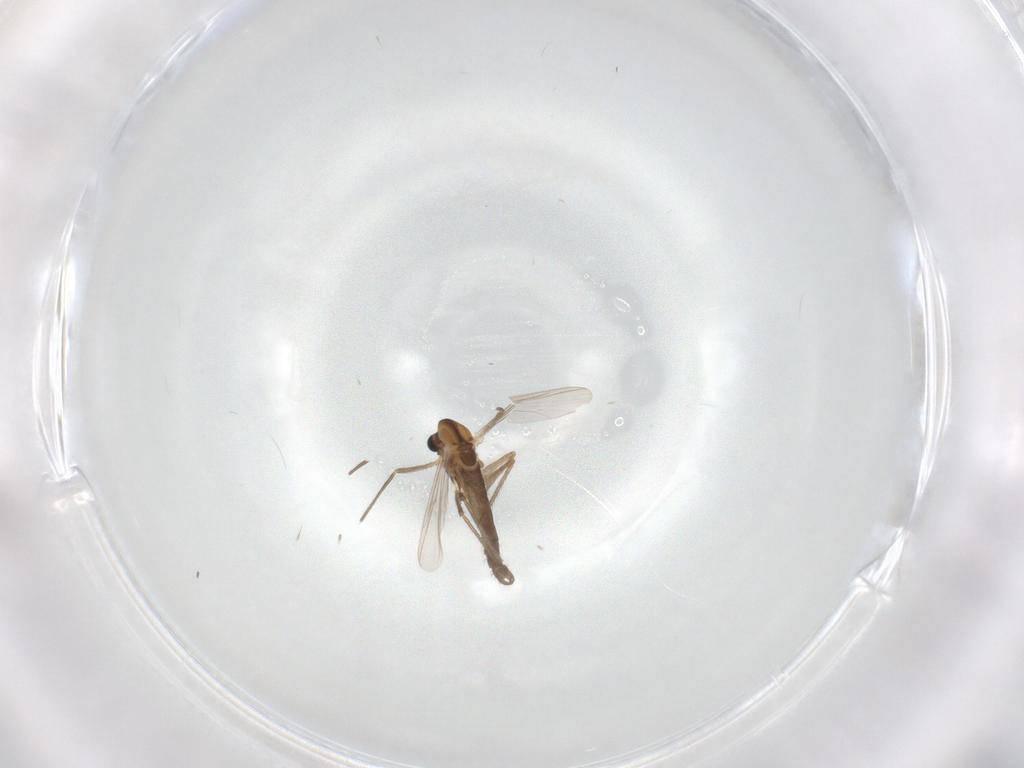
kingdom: Animalia
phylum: Arthropoda
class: Insecta
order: Diptera
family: Chironomidae
